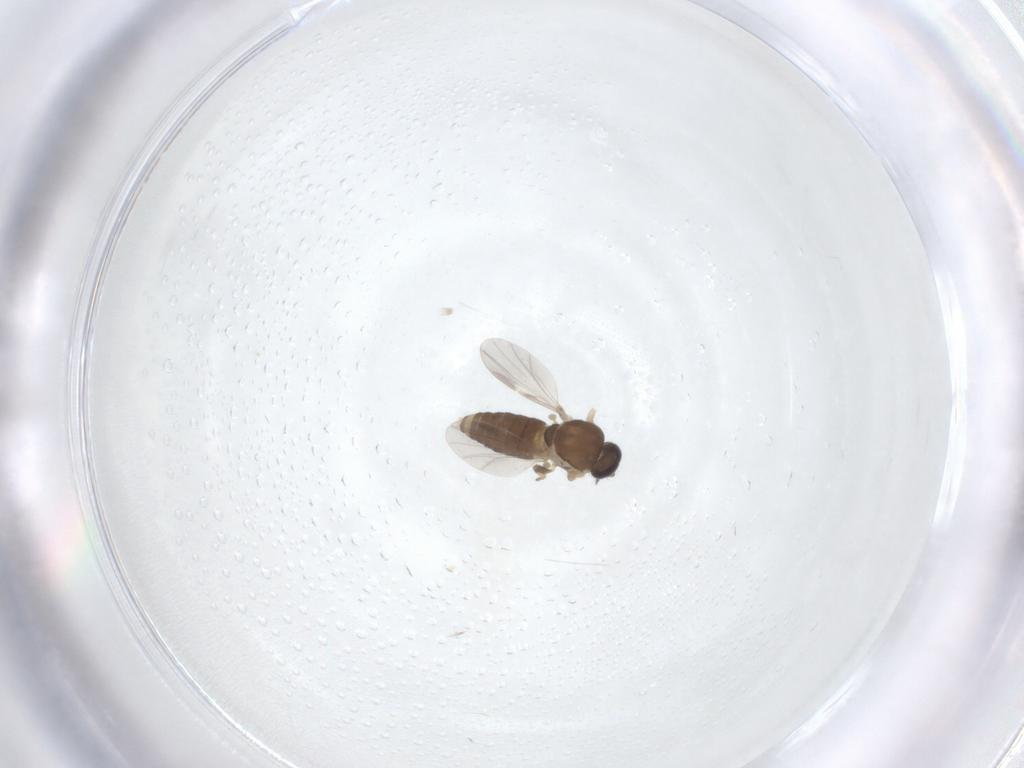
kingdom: Animalia
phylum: Arthropoda
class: Insecta
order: Diptera
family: Ceratopogonidae
